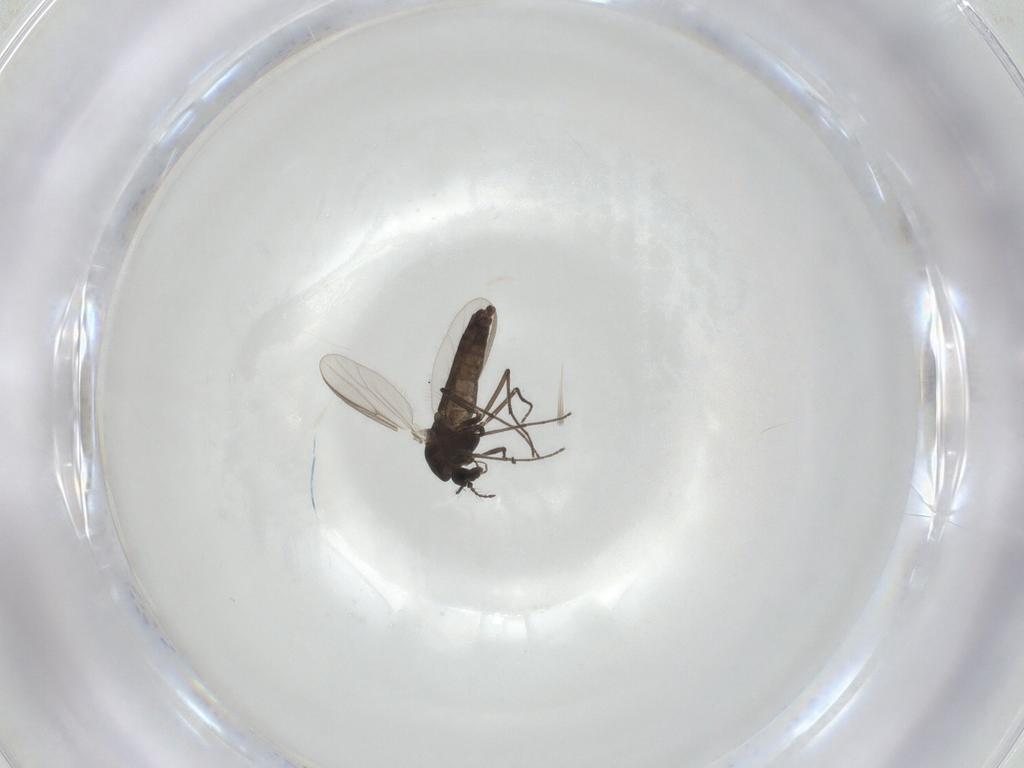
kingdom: Animalia
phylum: Arthropoda
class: Insecta
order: Diptera
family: Chironomidae
